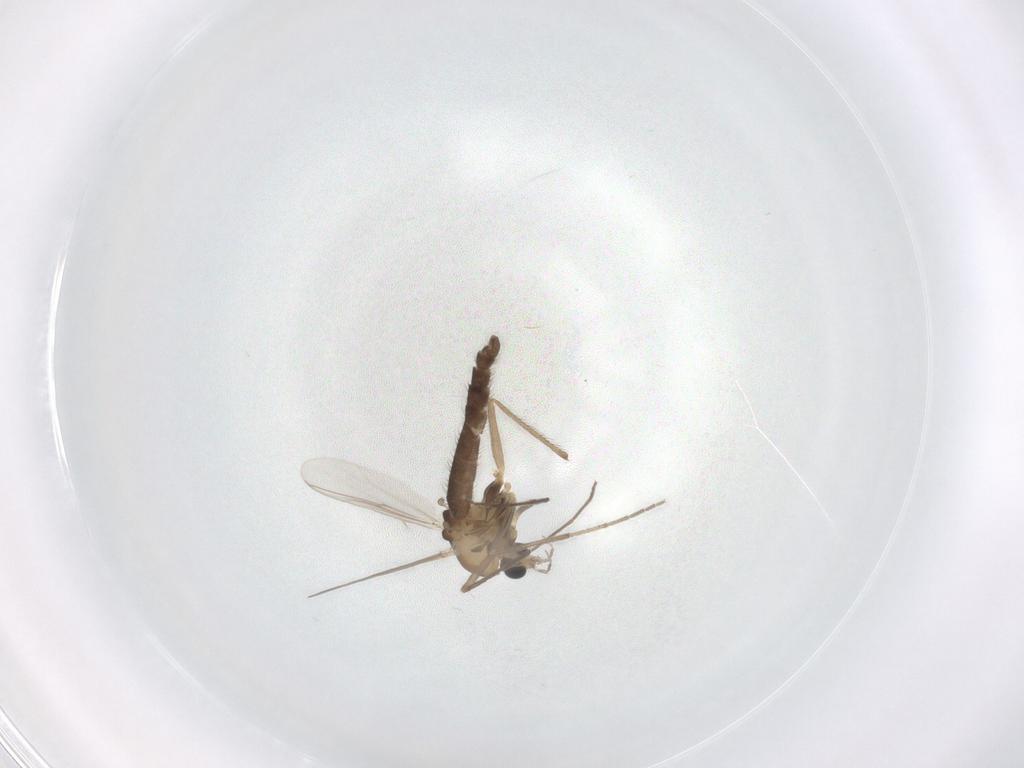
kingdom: Animalia
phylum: Arthropoda
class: Insecta
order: Diptera
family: Chironomidae
